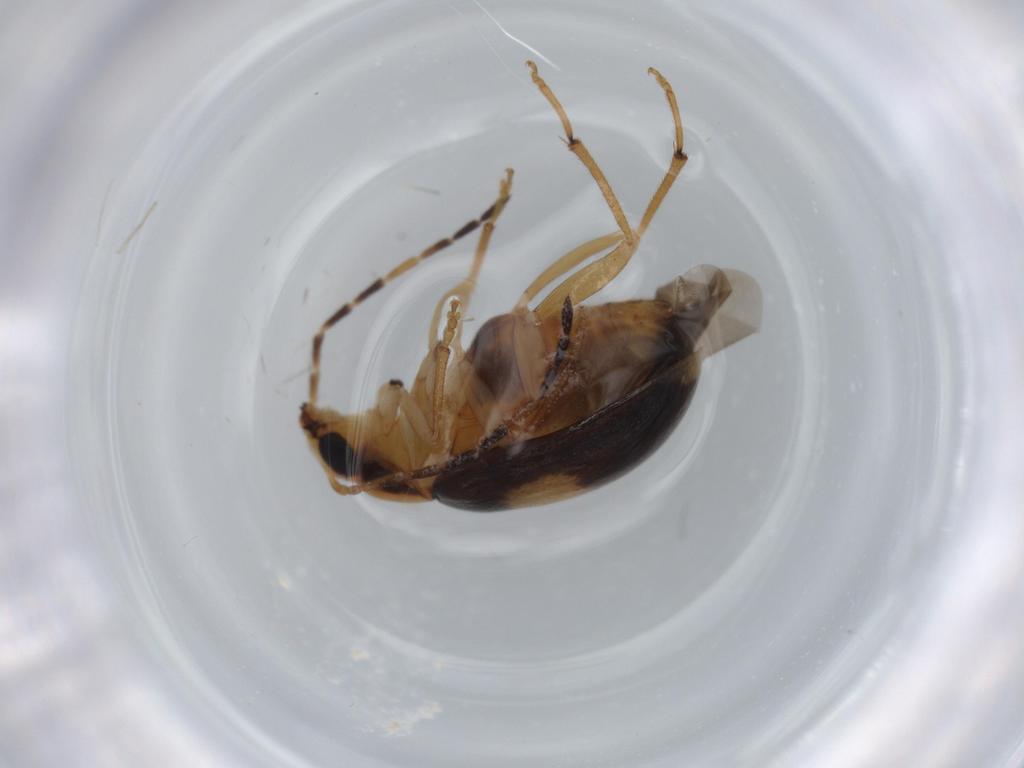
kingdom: Animalia
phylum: Arthropoda
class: Insecta
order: Coleoptera
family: Chrysomelidae
